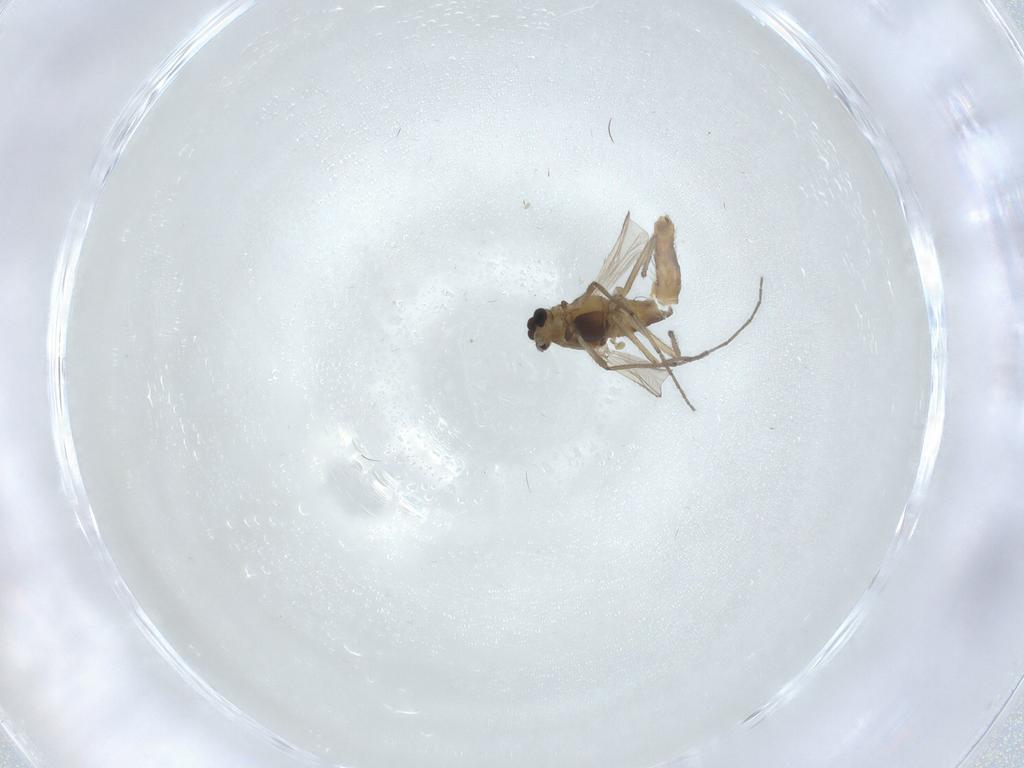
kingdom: Animalia
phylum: Arthropoda
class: Insecta
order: Diptera
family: Chironomidae
